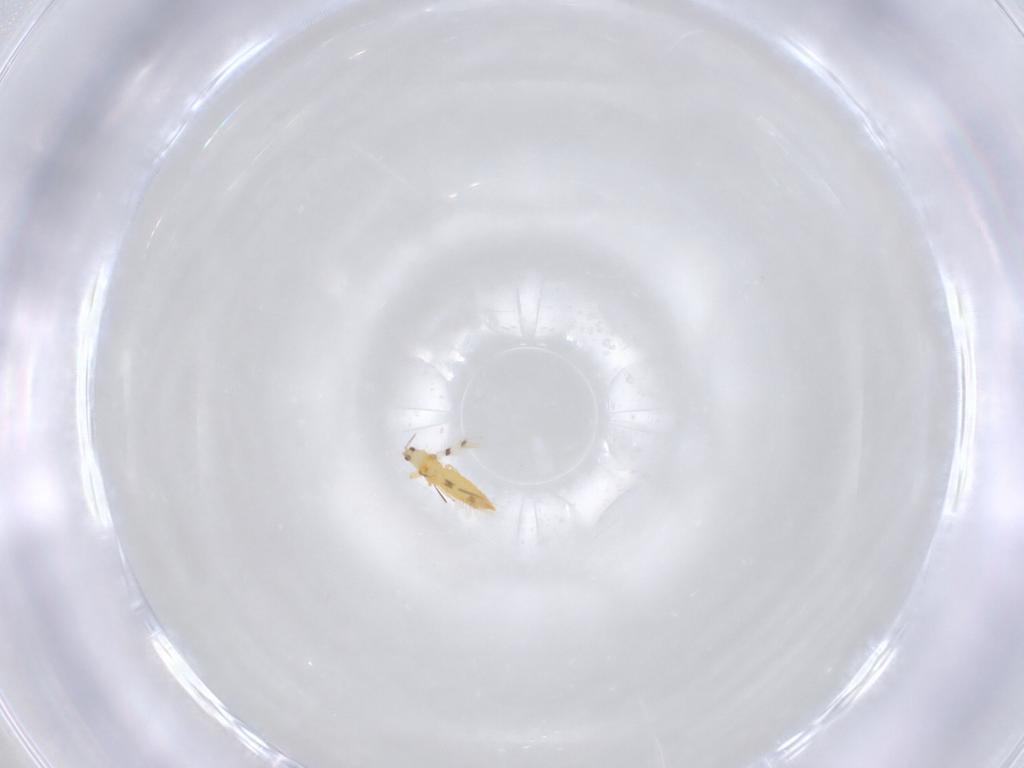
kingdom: Animalia
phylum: Arthropoda
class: Insecta
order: Thysanoptera
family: Thripidae
